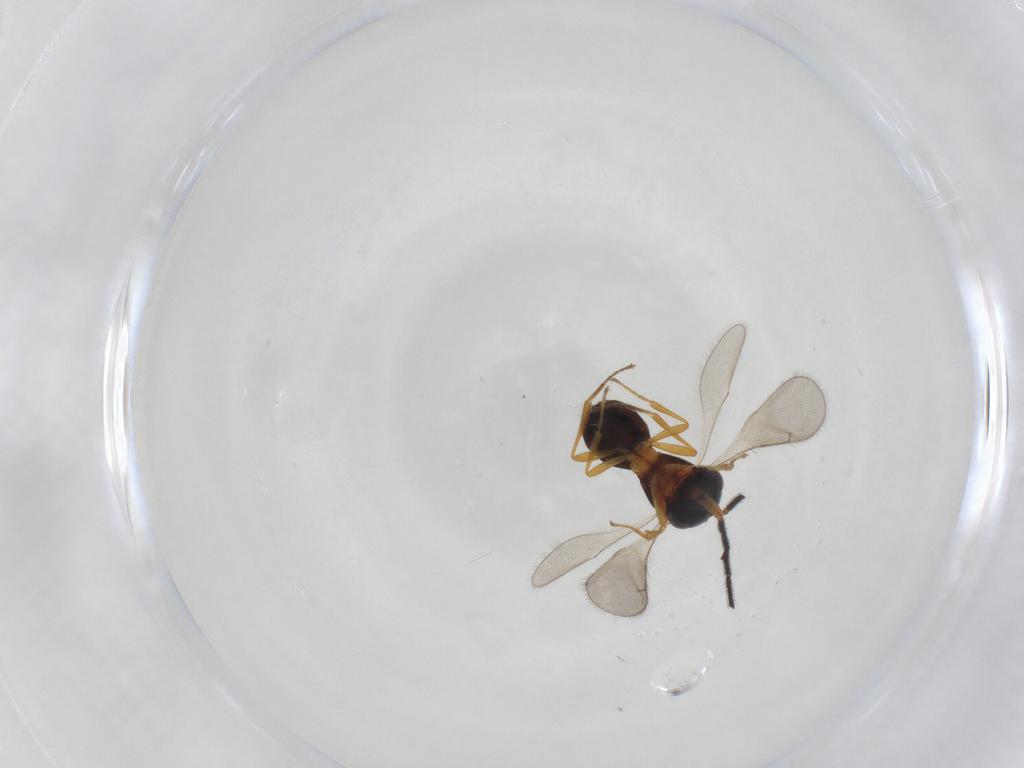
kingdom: Animalia
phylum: Arthropoda
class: Insecta
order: Hymenoptera
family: Scelionidae
